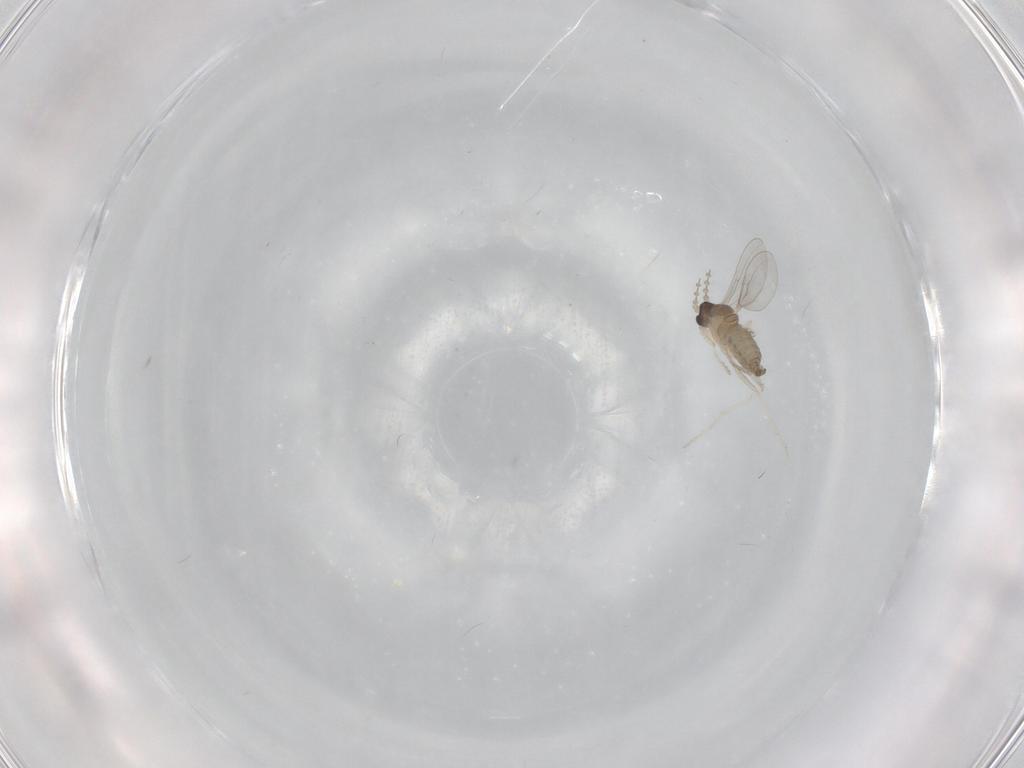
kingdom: Animalia
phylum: Arthropoda
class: Insecta
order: Diptera
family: Cecidomyiidae
